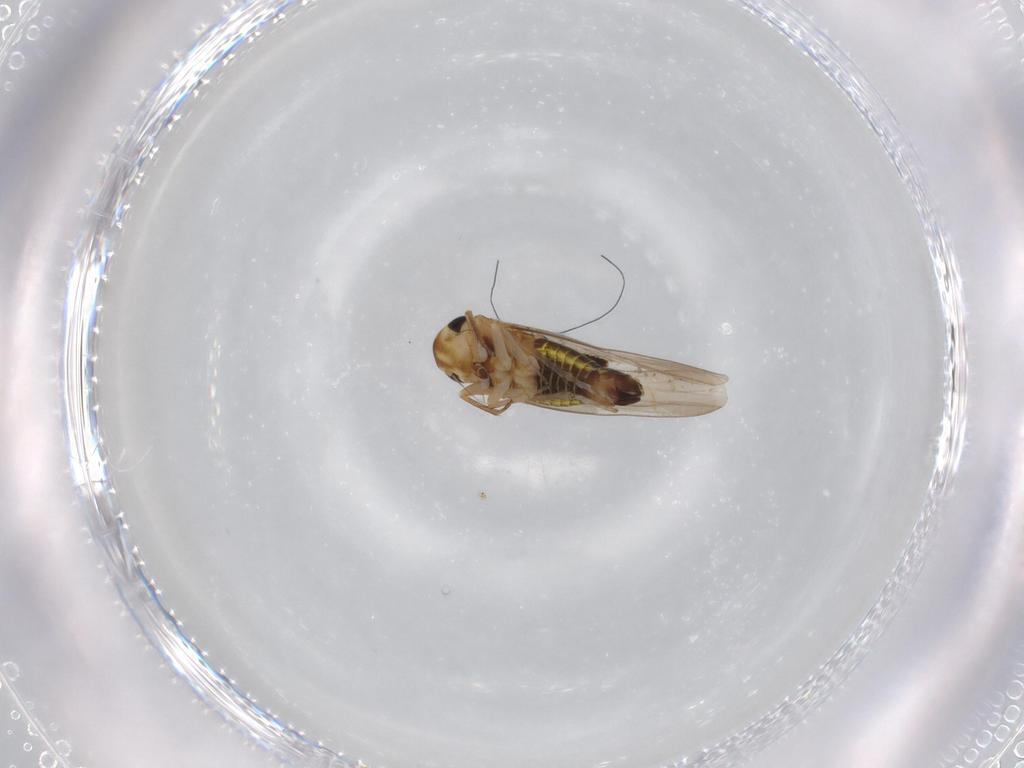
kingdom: Animalia
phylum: Arthropoda
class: Insecta
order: Hemiptera
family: Cicadellidae
